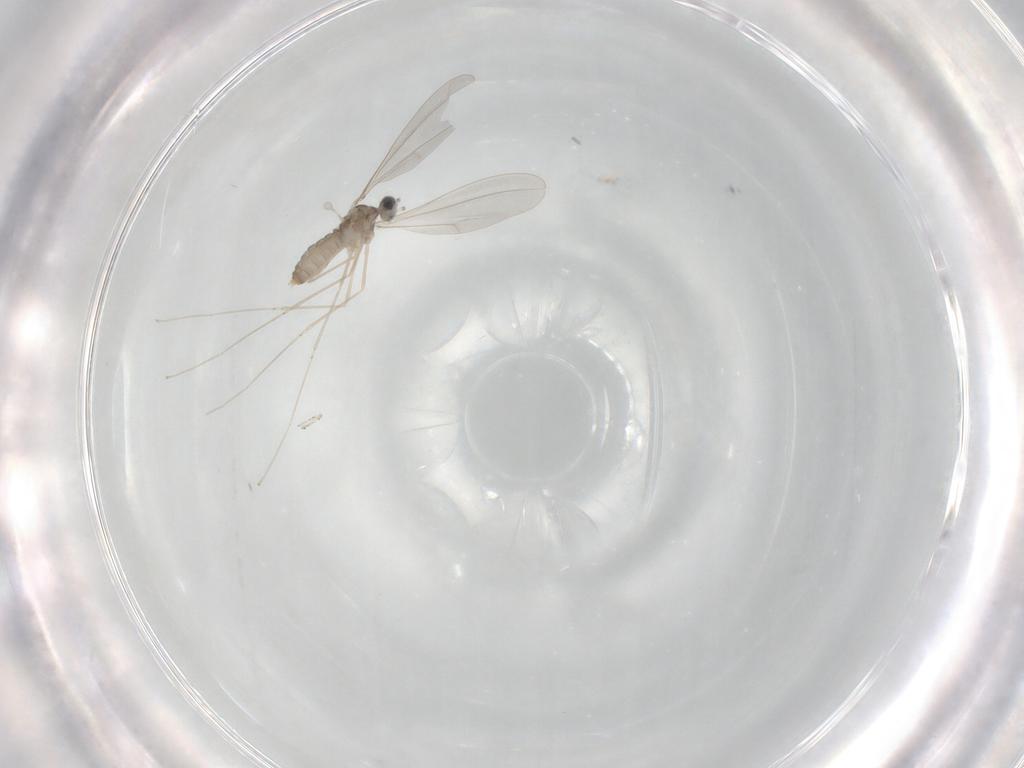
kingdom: Animalia
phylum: Arthropoda
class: Insecta
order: Diptera
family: Cecidomyiidae
